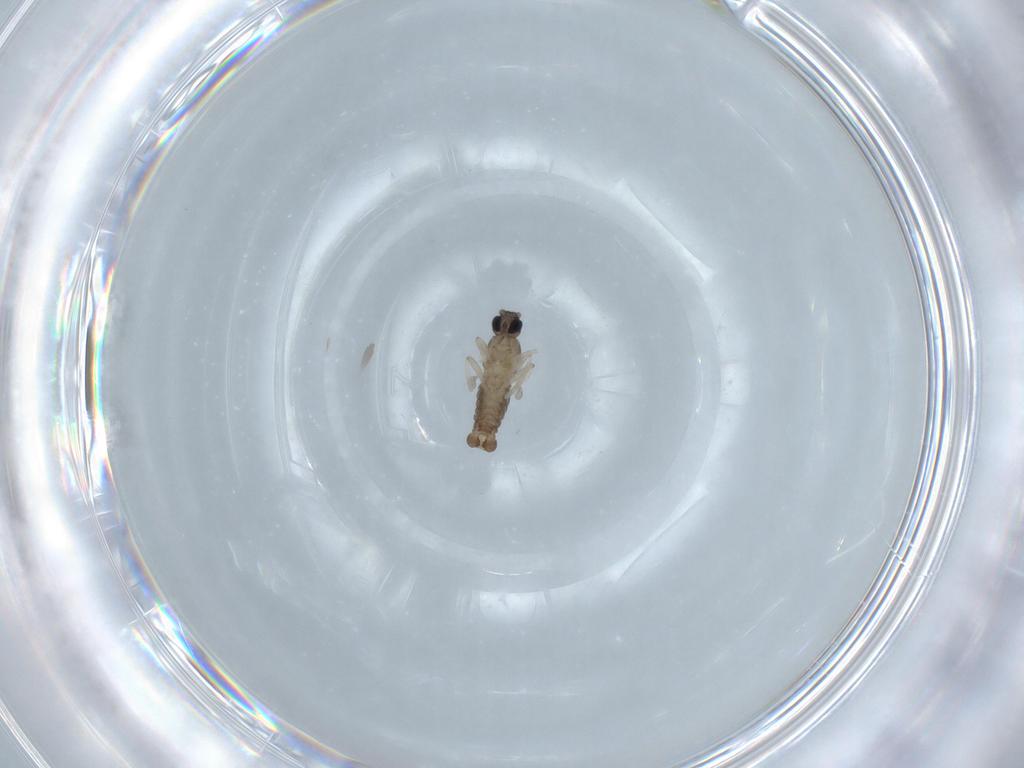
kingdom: Animalia
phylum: Arthropoda
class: Insecta
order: Diptera
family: Cecidomyiidae
